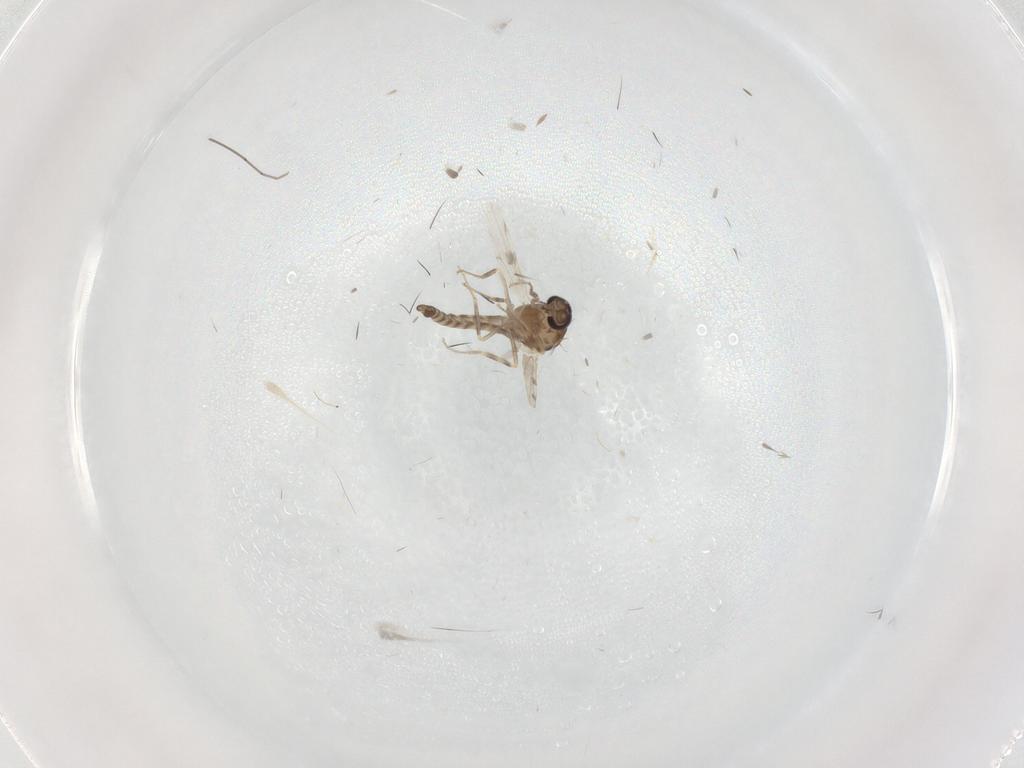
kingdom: Animalia
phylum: Arthropoda
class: Insecta
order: Diptera
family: Ceratopogonidae
